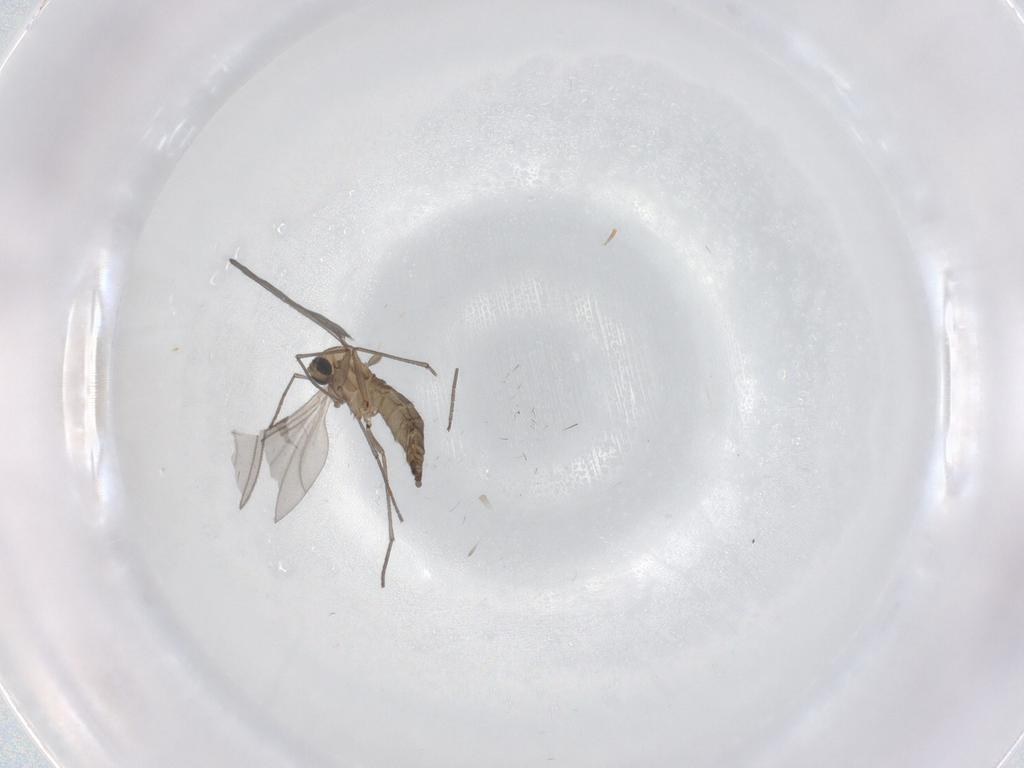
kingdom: Animalia
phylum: Arthropoda
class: Insecta
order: Diptera
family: Sciaridae
